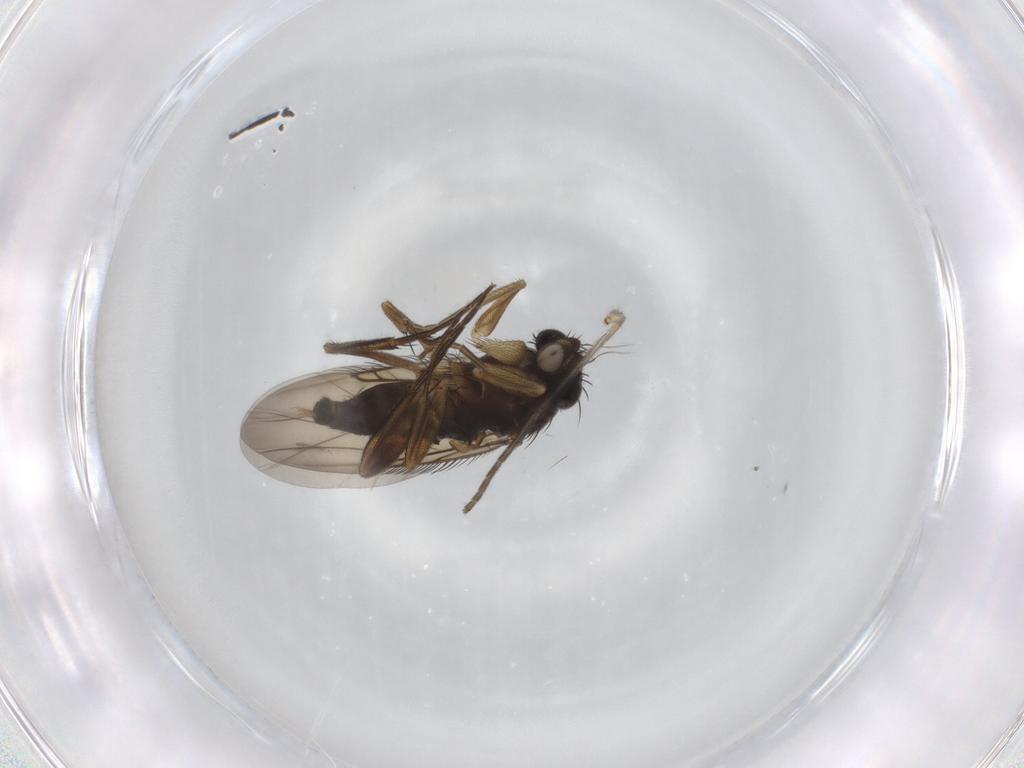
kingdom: Animalia
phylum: Arthropoda
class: Insecta
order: Diptera
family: Phoridae
